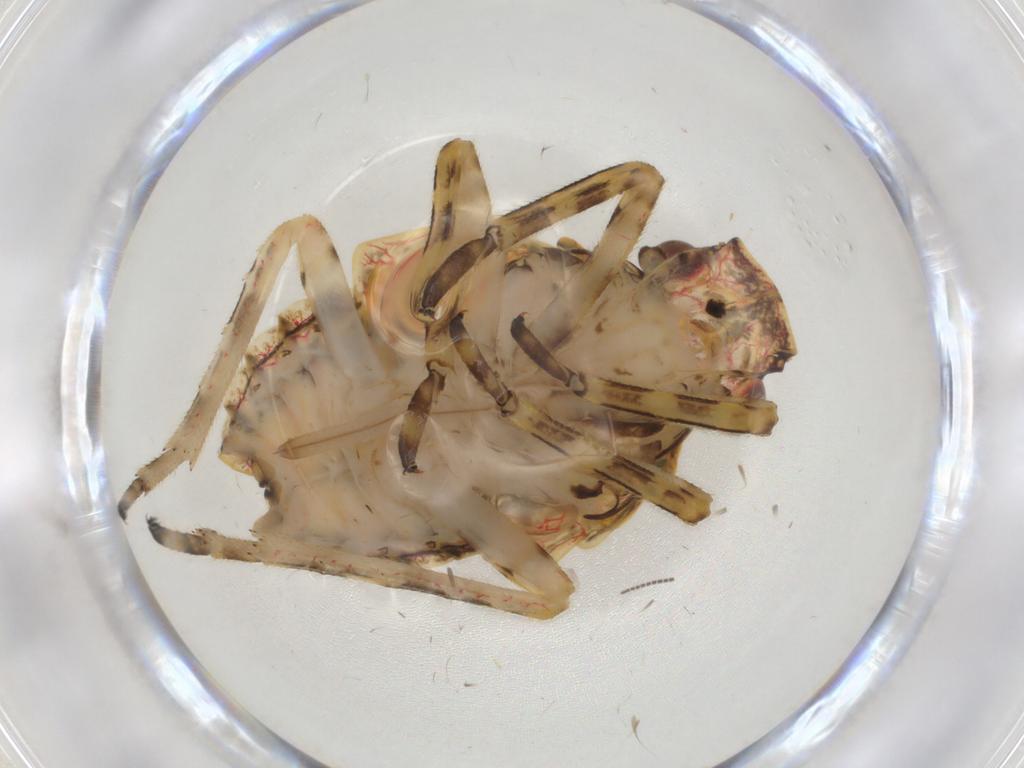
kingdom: Animalia
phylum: Arthropoda
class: Insecta
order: Hemiptera
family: Fulgoridae
